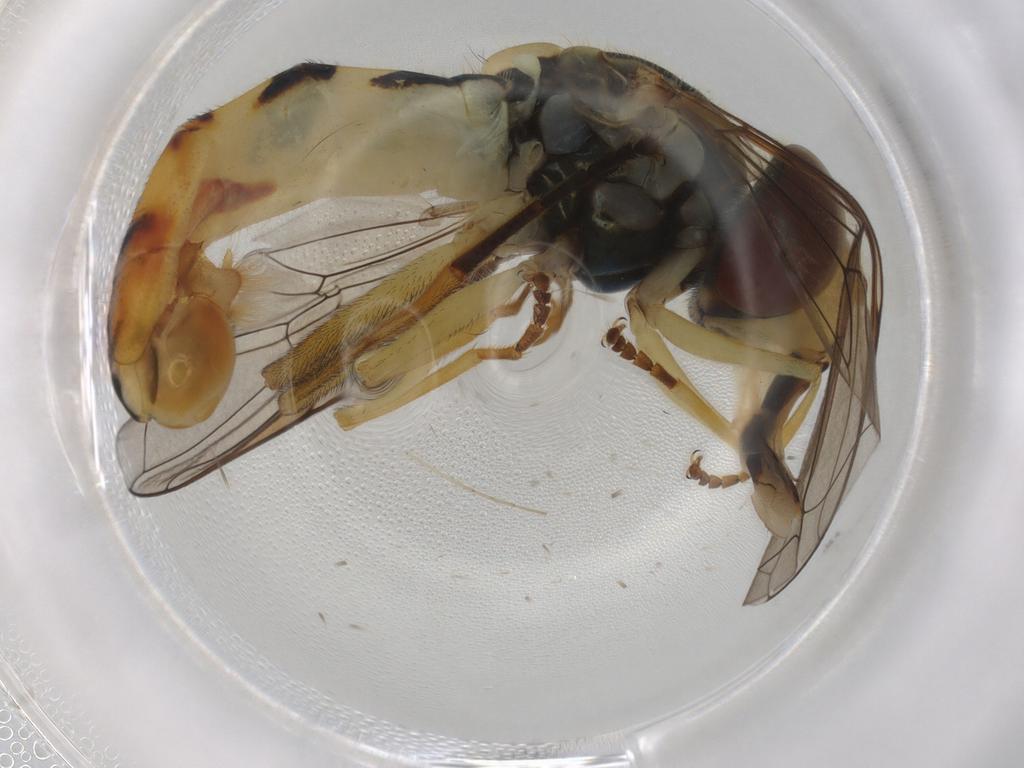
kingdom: Animalia
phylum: Arthropoda
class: Insecta
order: Diptera
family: Syrphidae
